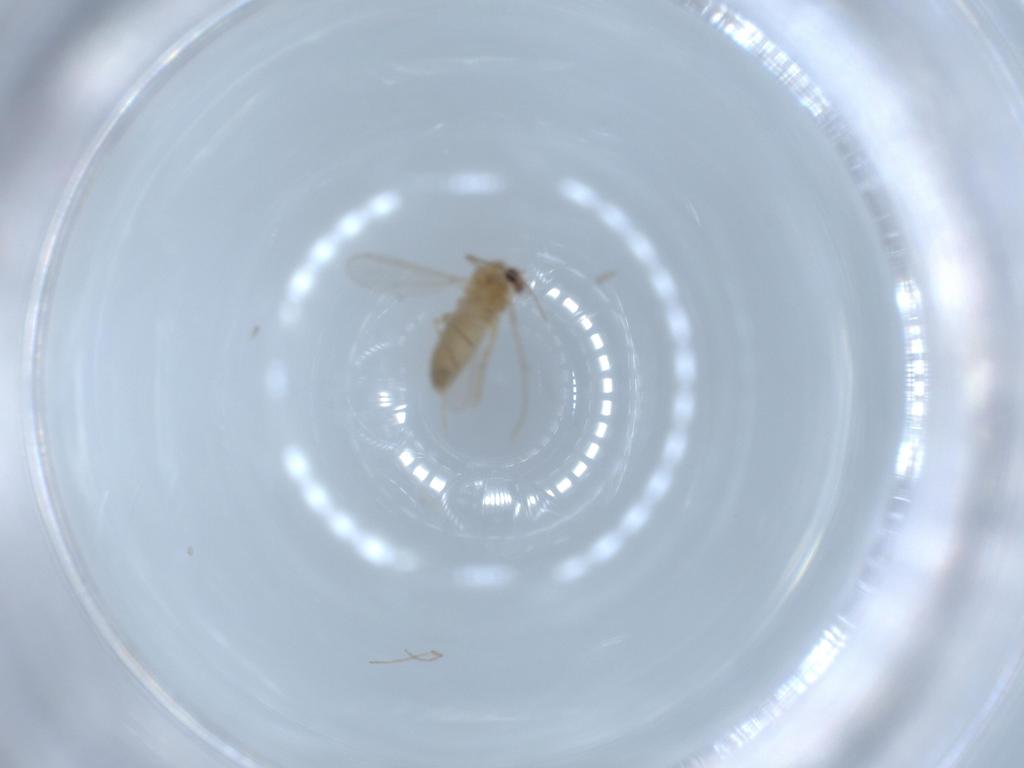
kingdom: Animalia
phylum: Arthropoda
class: Insecta
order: Diptera
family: Chironomidae
